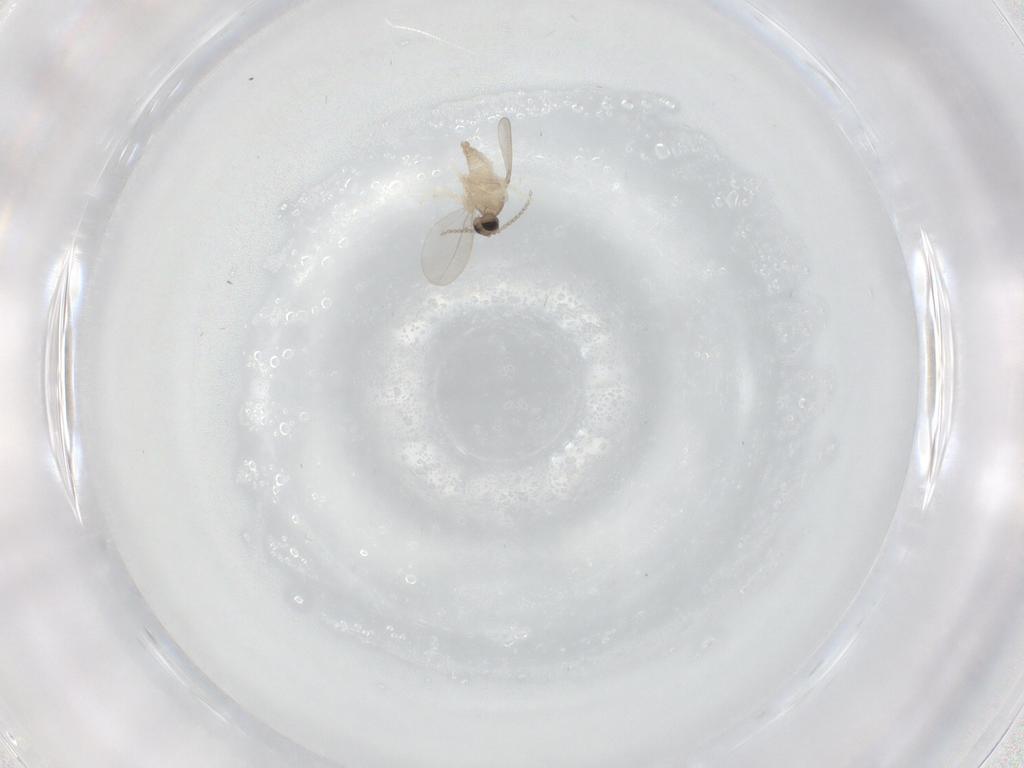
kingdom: Animalia
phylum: Arthropoda
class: Insecta
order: Diptera
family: Cecidomyiidae
